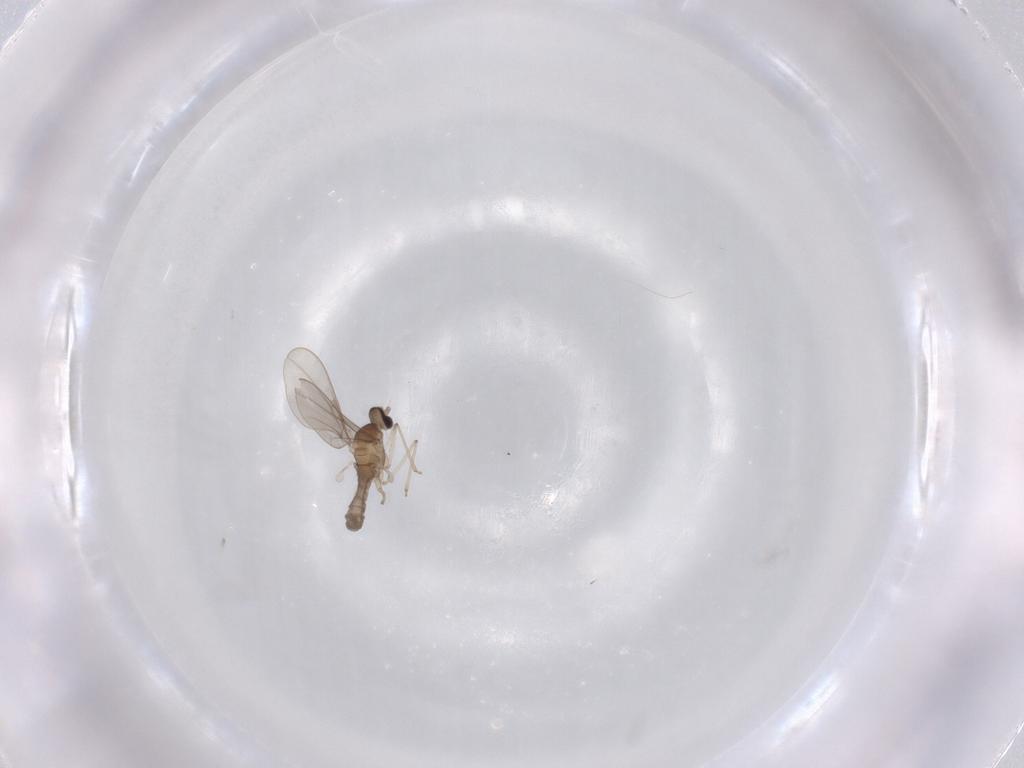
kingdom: Animalia
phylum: Arthropoda
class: Insecta
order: Diptera
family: Cecidomyiidae
